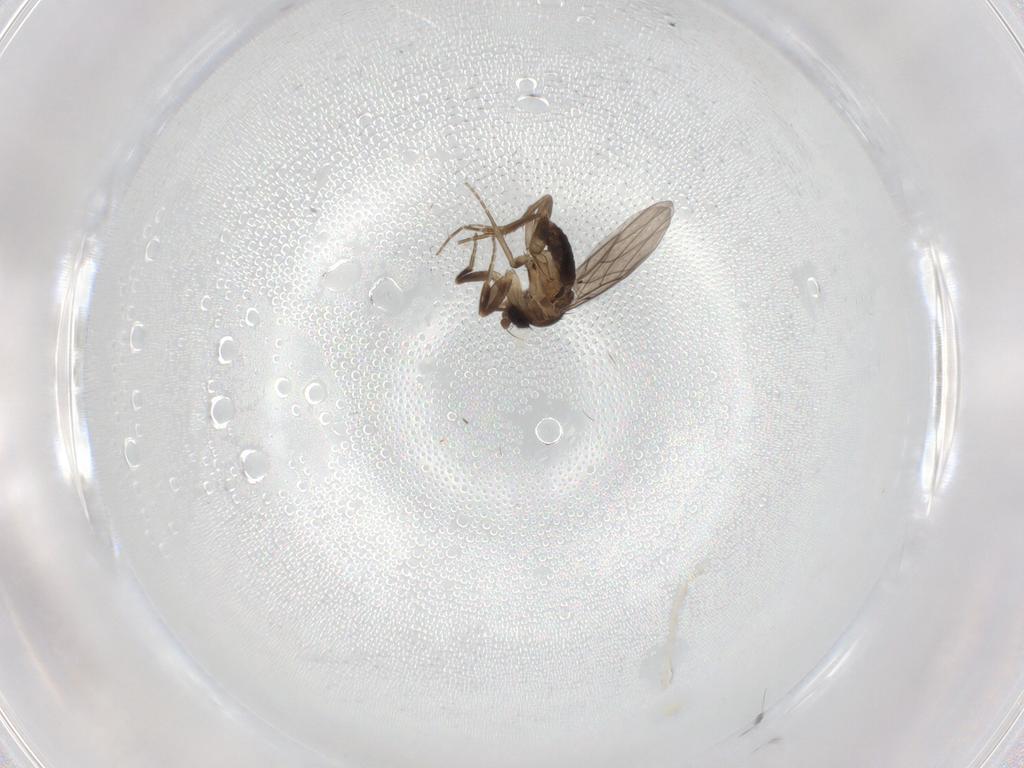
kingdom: Animalia
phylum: Arthropoda
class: Insecta
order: Diptera
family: Phoridae
